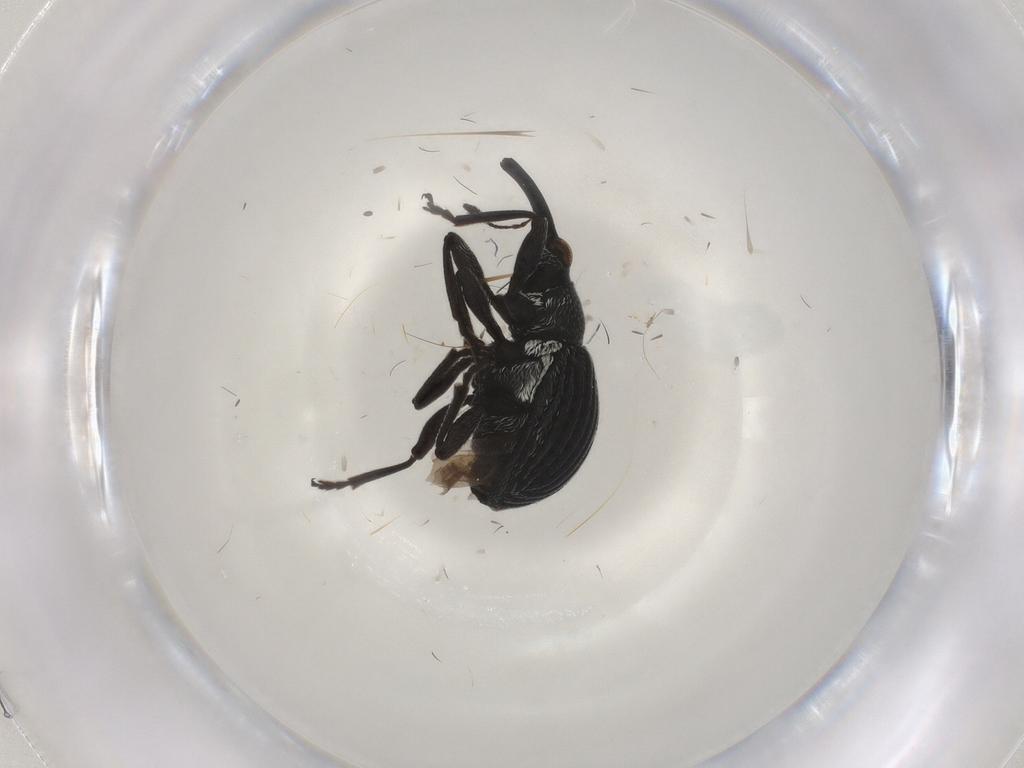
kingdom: Animalia
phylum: Arthropoda
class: Insecta
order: Coleoptera
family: Brentidae
